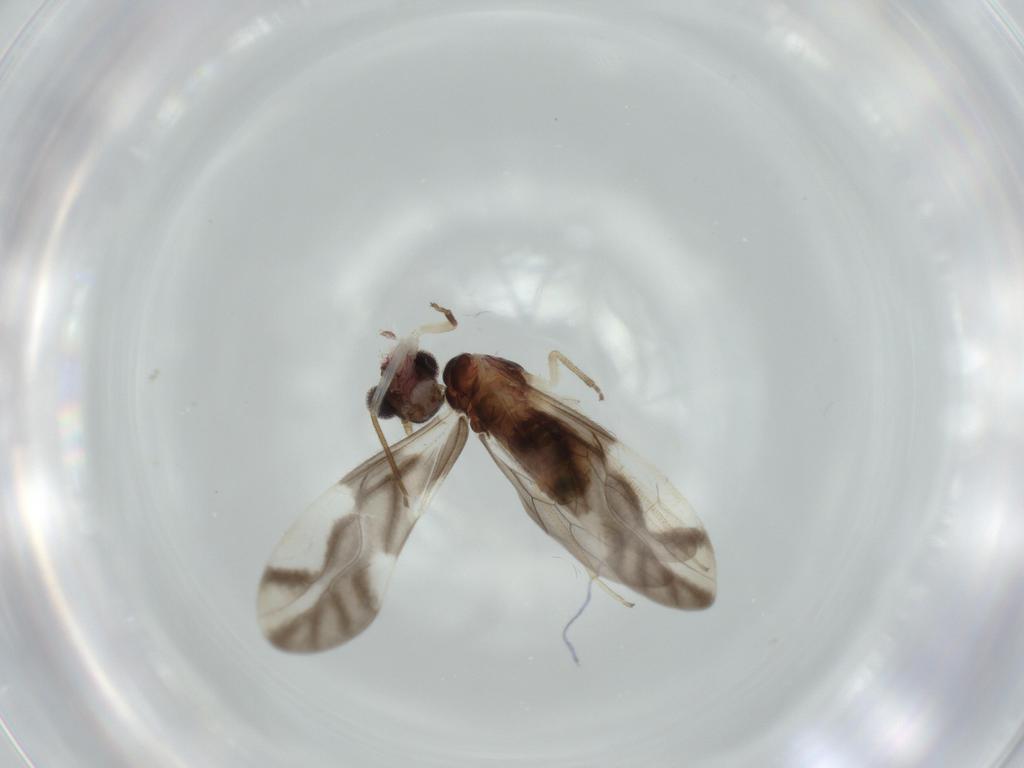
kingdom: Animalia
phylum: Arthropoda
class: Insecta
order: Psocodea
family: Caeciliusidae
